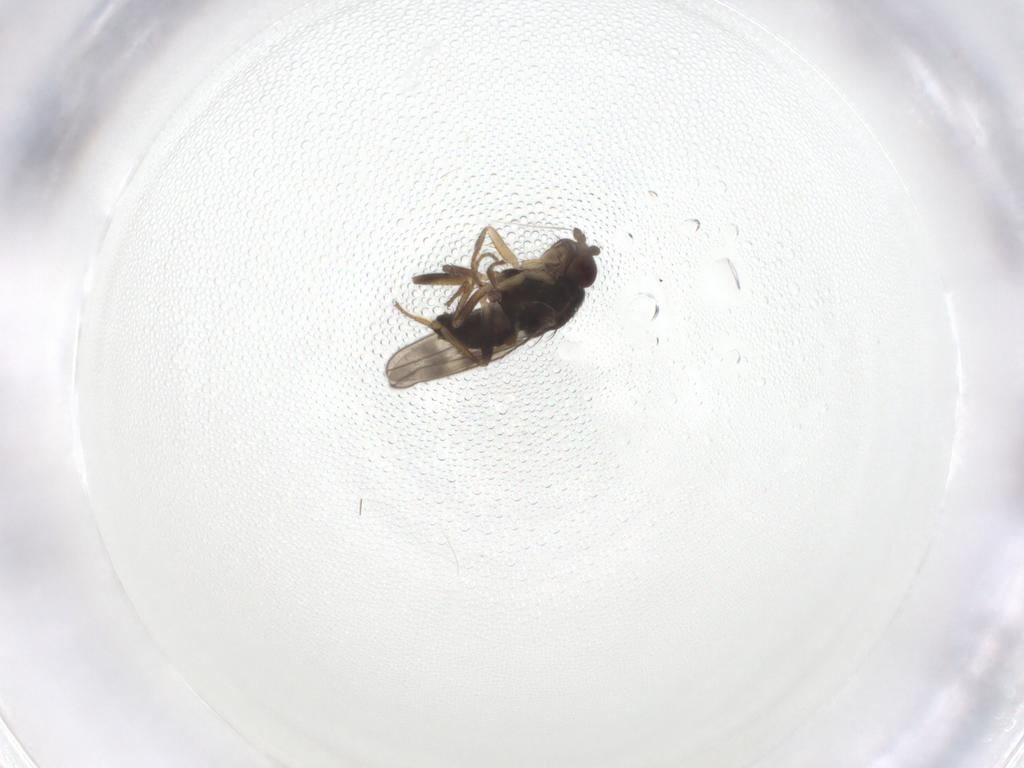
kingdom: Animalia
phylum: Arthropoda
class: Insecta
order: Diptera
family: Sphaeroceridae
